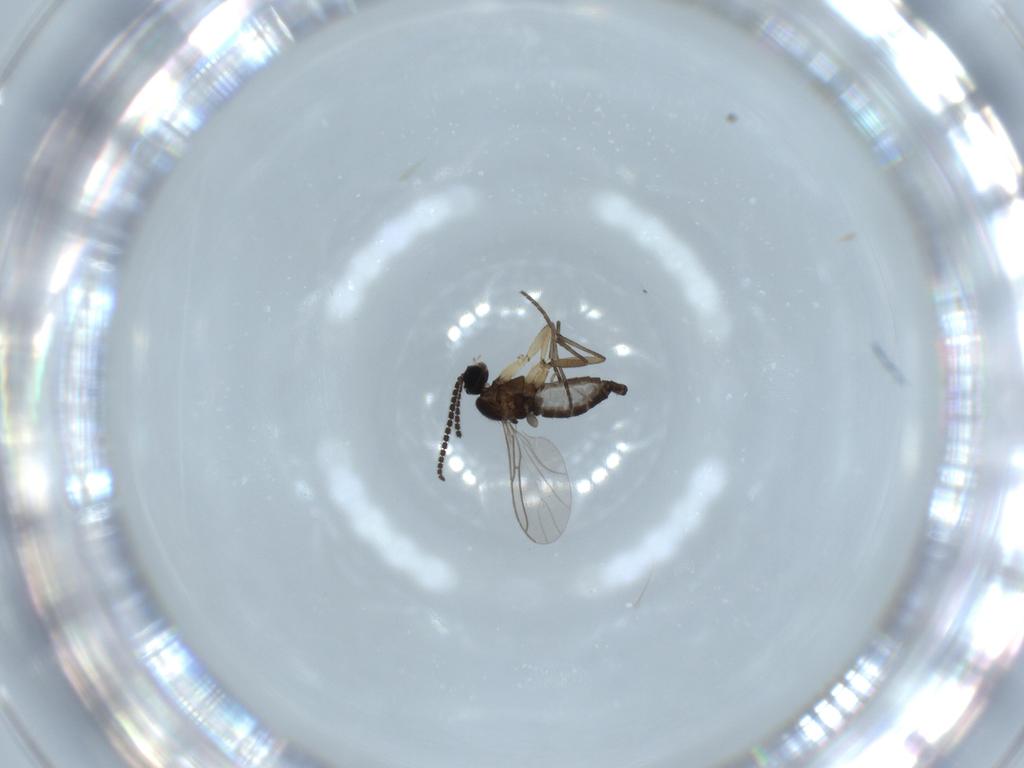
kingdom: Animalia
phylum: Arthropoda
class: Insecta
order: Diptera
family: Sciaridae
